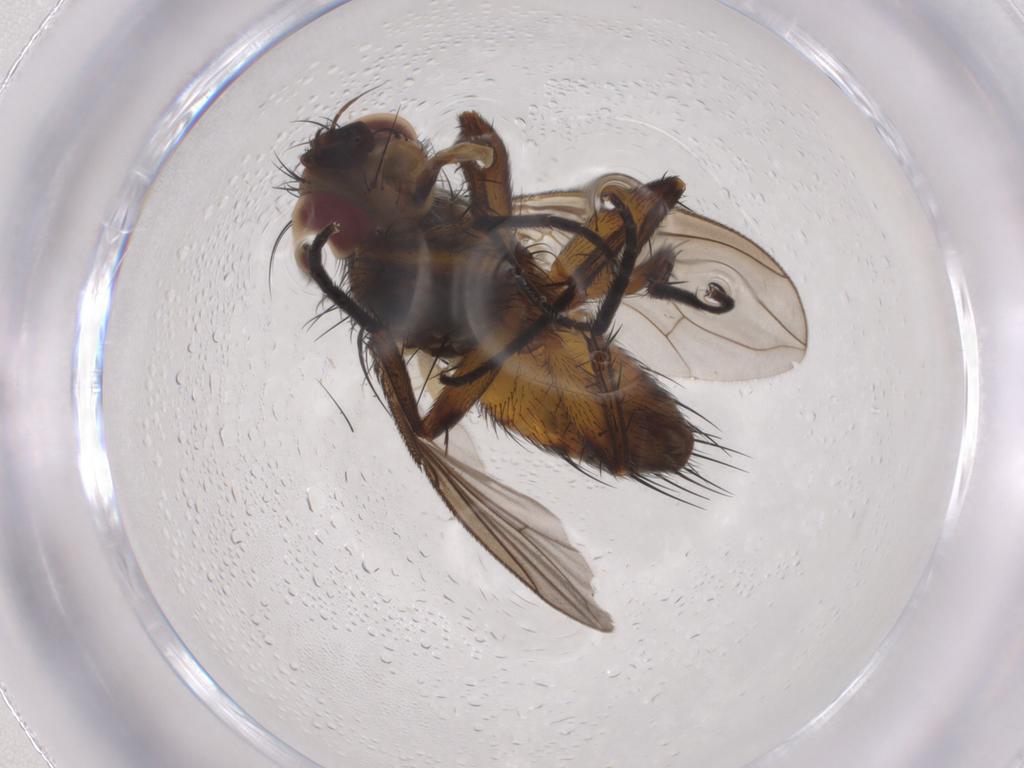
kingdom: Animalia
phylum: Arthropoda
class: Insecta
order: Diptera
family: Tachinidae
